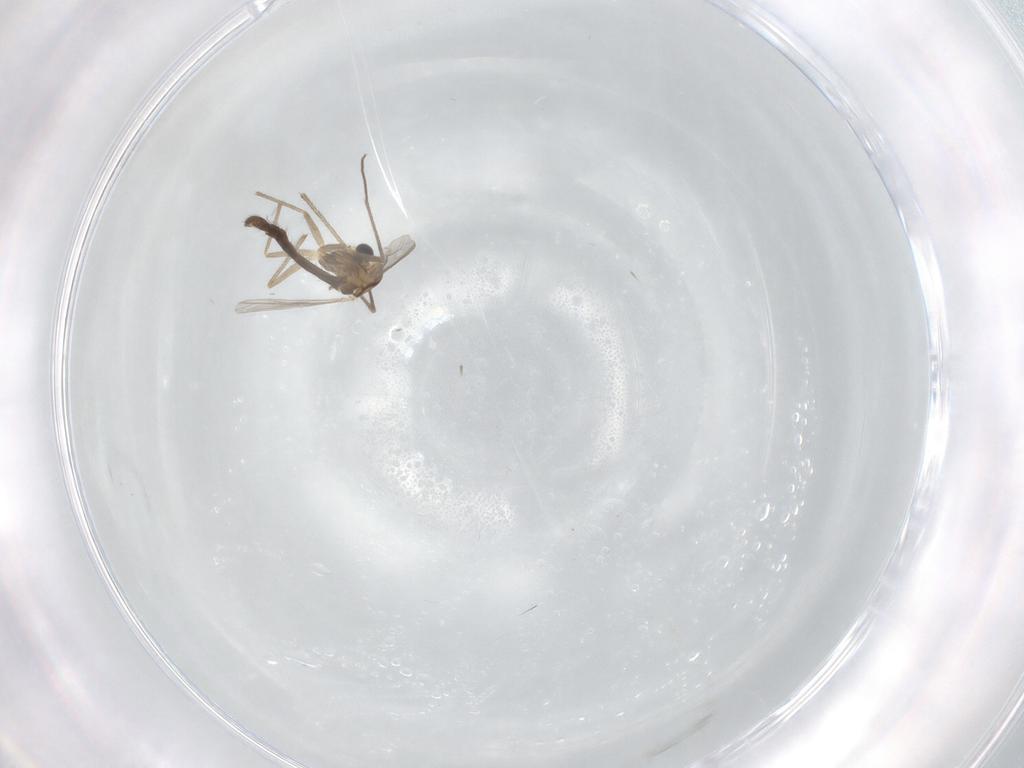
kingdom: Animalia
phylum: Arthropoda
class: Insecta
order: Diptera
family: Chironomidae
